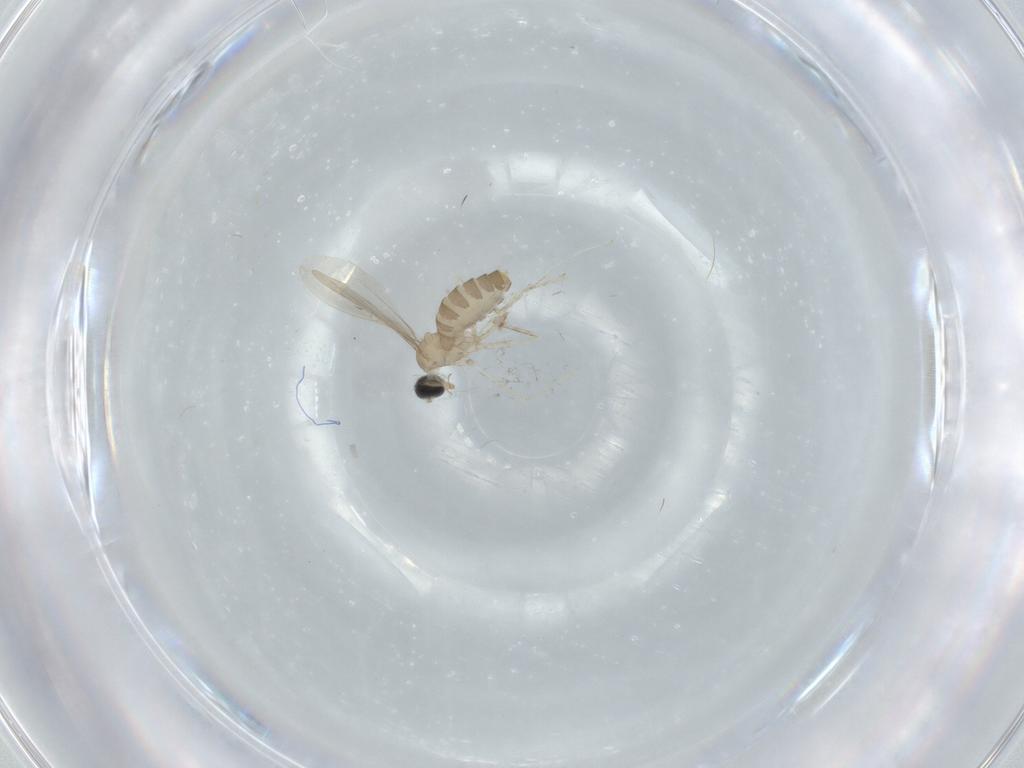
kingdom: Animalia
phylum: Arthropoda
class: Insecta
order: Diptera
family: Cecidomyiidae
